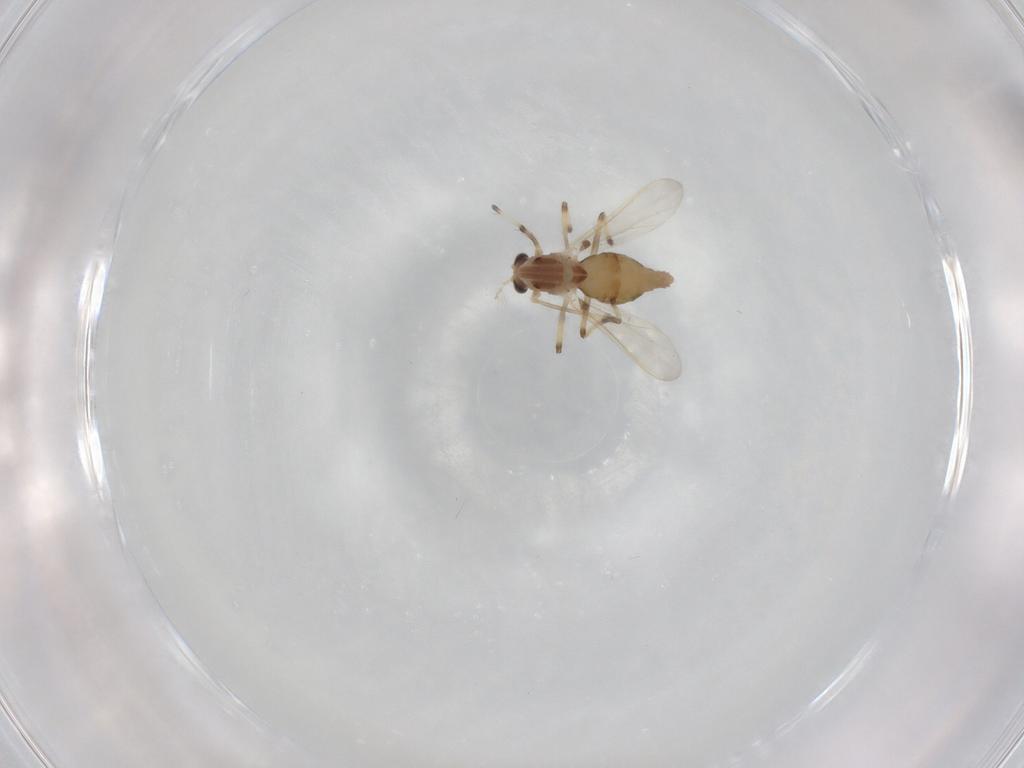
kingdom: Animalia
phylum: Arthropoda
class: Insecta
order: Diptera
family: Chironomidae
